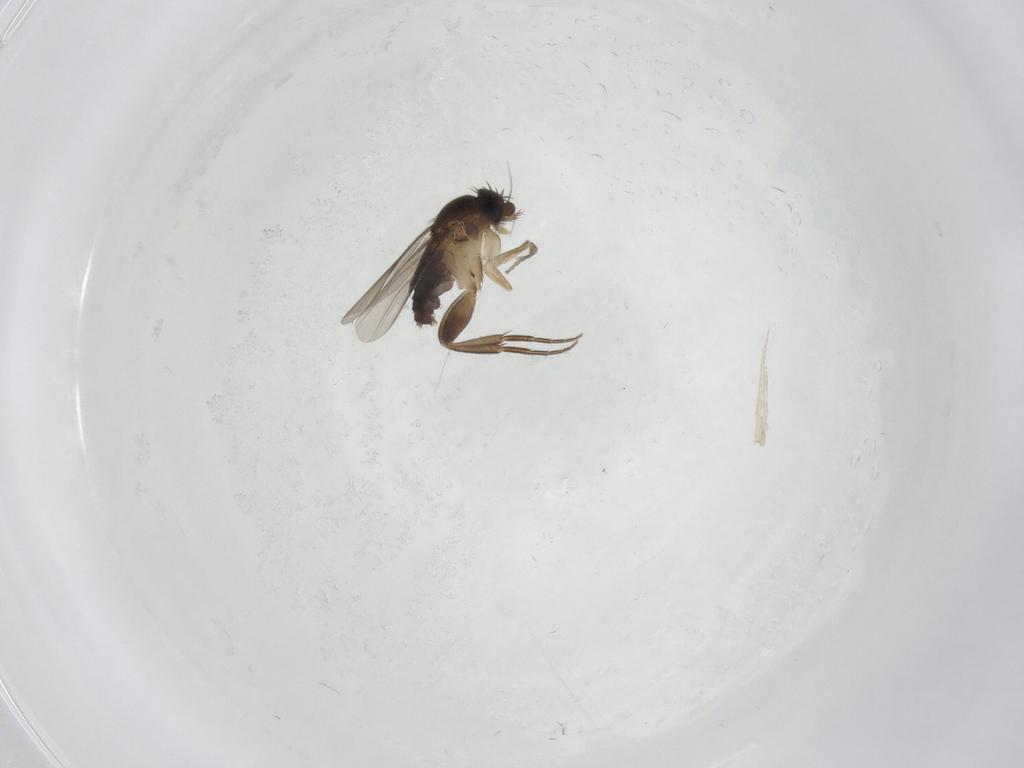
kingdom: Animalia
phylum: Arthropoda
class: Insecta
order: Diptera
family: Phoridae
